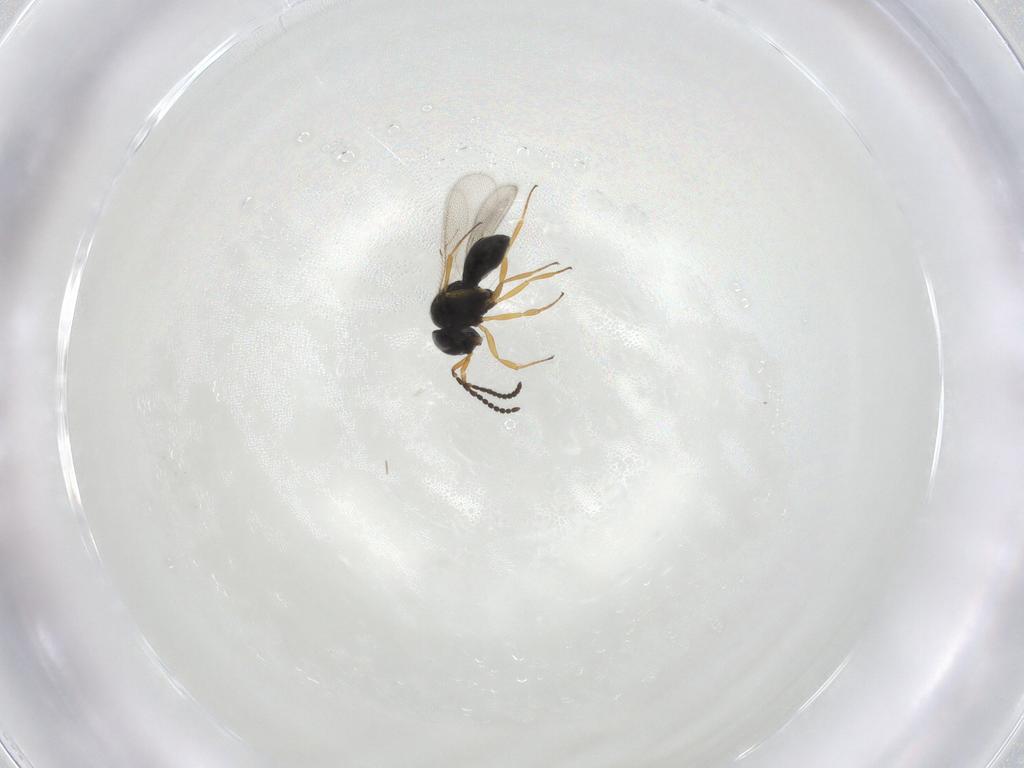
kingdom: Animalia
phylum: Arthropoda
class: Insecta
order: Hymenoptera
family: Scelionidae
